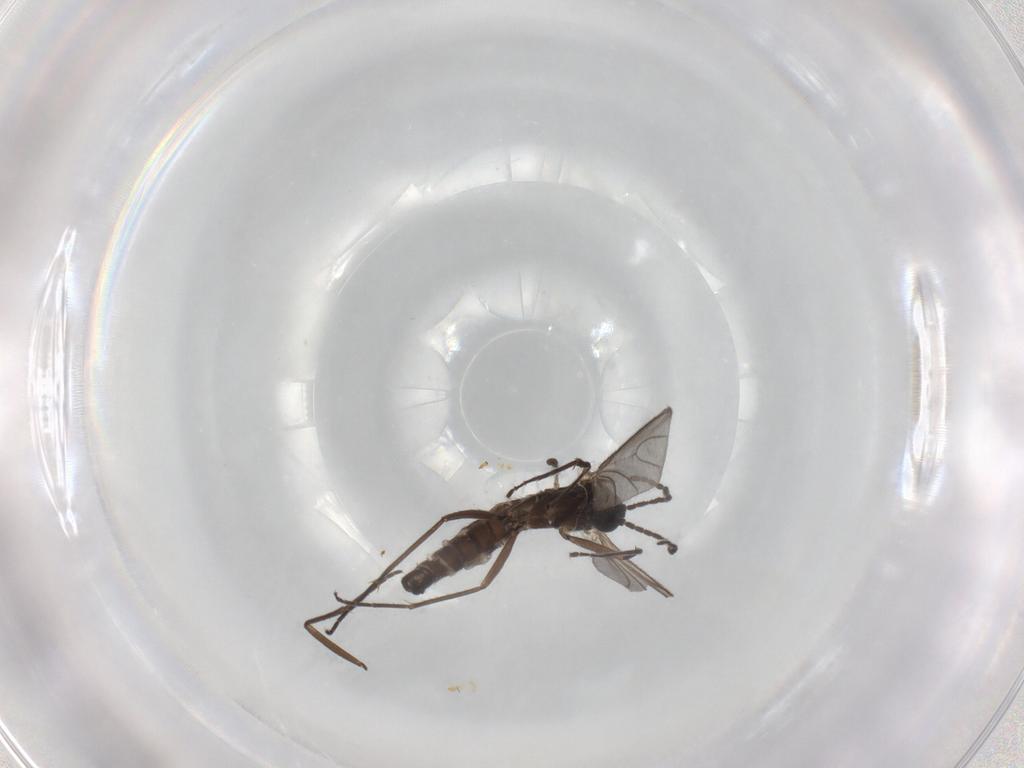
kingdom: Animalia
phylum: Arthropoda
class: Insecta
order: Diptera
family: Sciaridae
